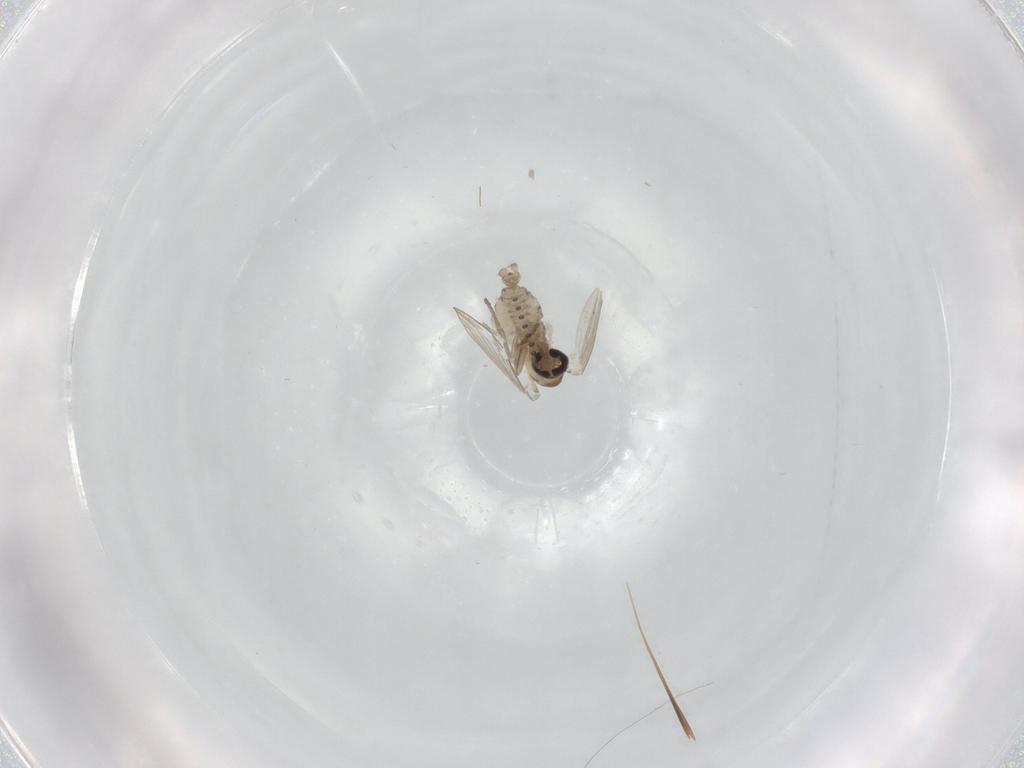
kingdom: Animalia
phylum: Arthropoda
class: Insecta
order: Diptera
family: Psychodidae
